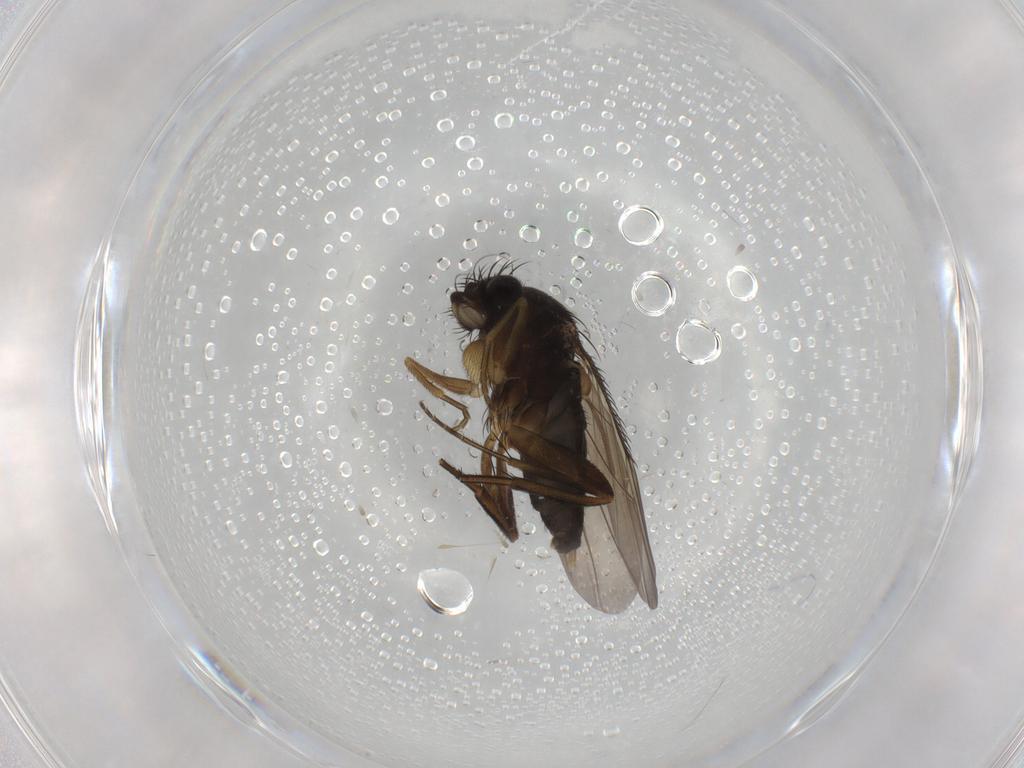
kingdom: Animalia
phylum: Arthropoda
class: Insecta
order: Diptera
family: Phoridae
